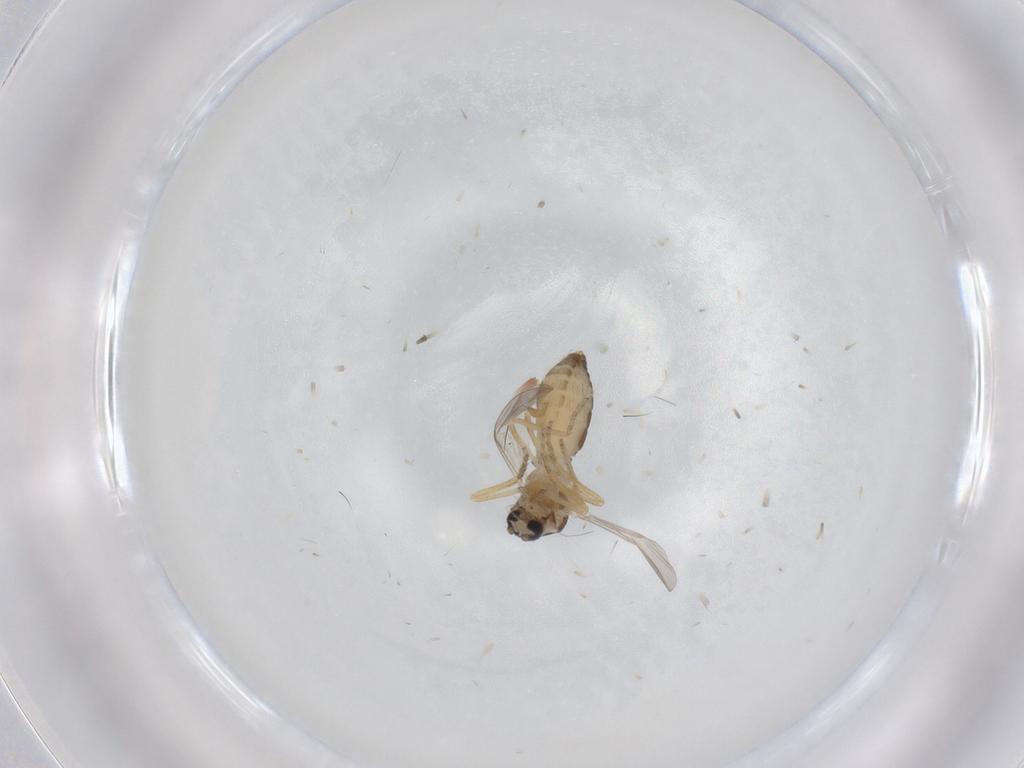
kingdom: Animalia
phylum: Arthropoda
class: Insecta
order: Diptera
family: Ceratopogonidae
